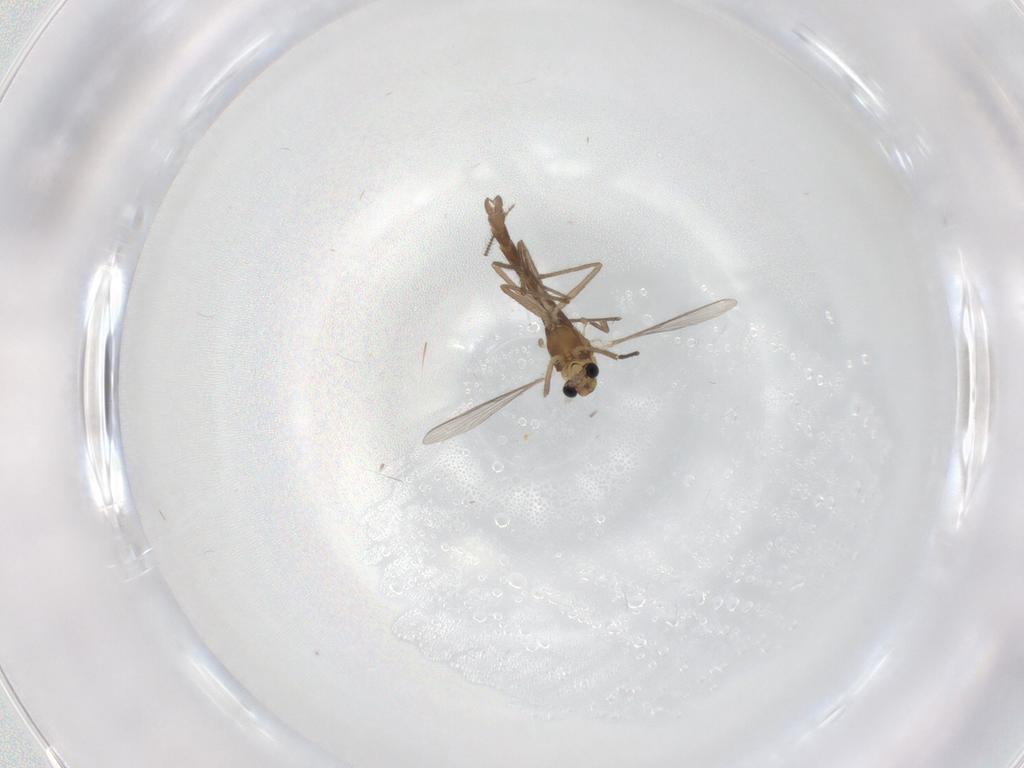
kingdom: Animalia
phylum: Arthropoda
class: Insecta
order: Diptera
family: Chironomidae
